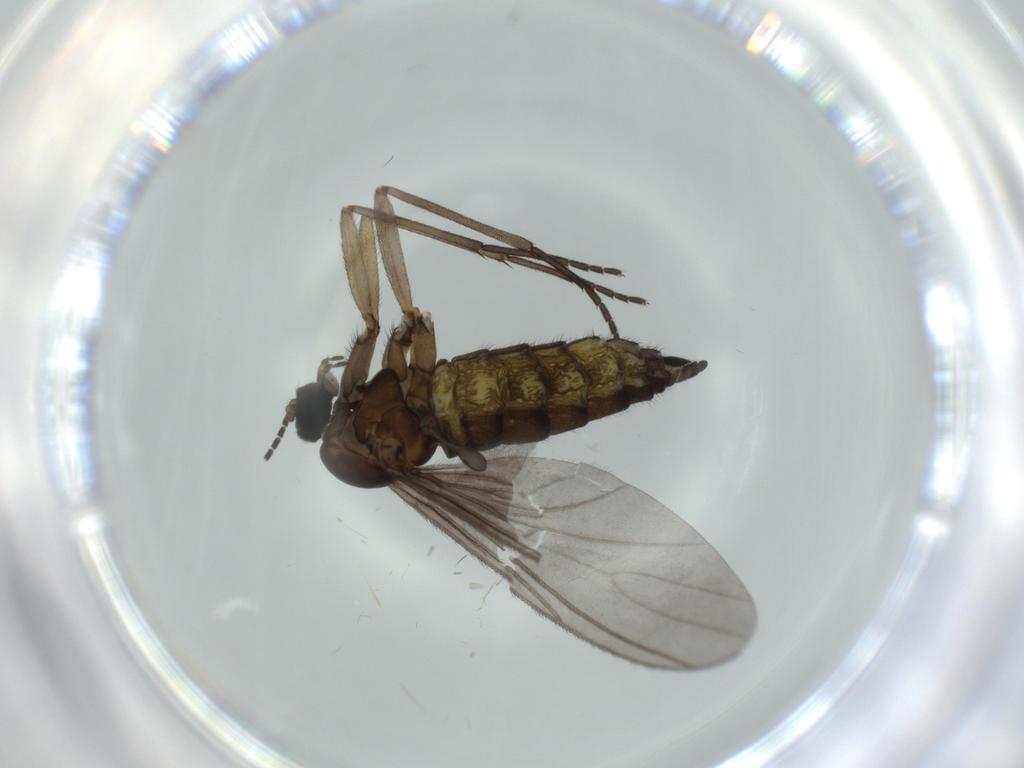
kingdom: Animalia
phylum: Arthropoda
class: Insecta
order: Diptera
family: Sciaridae
